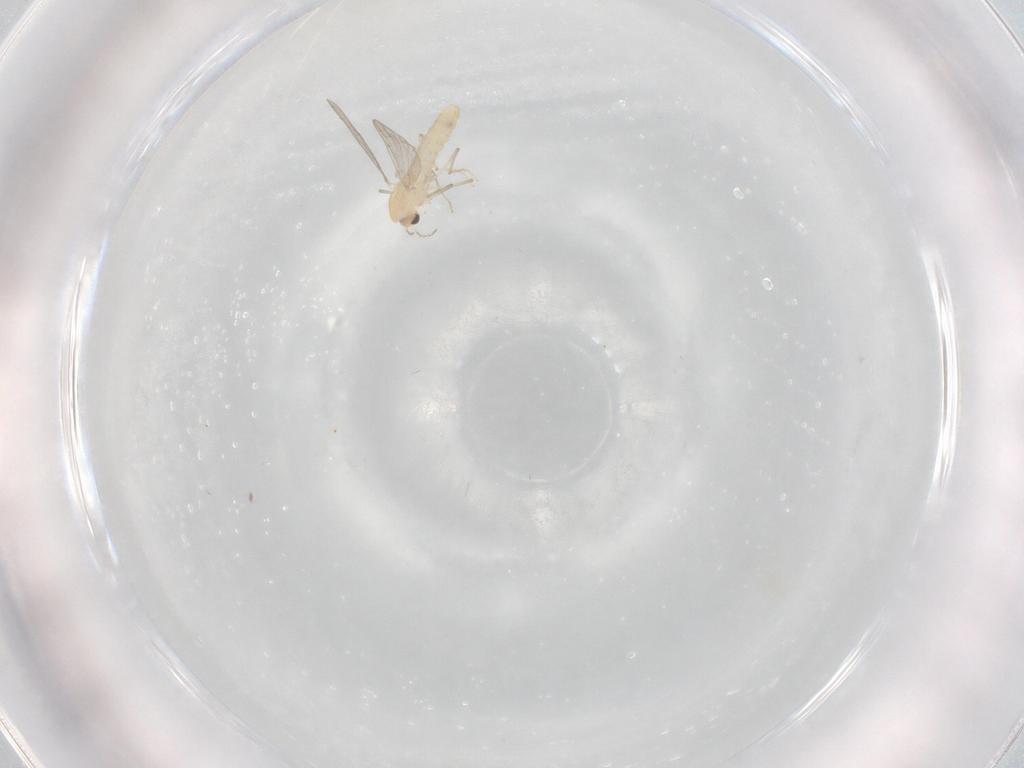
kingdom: Animalia
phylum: Arthropoda
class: Insecta
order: Diptera
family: Chironomidae
